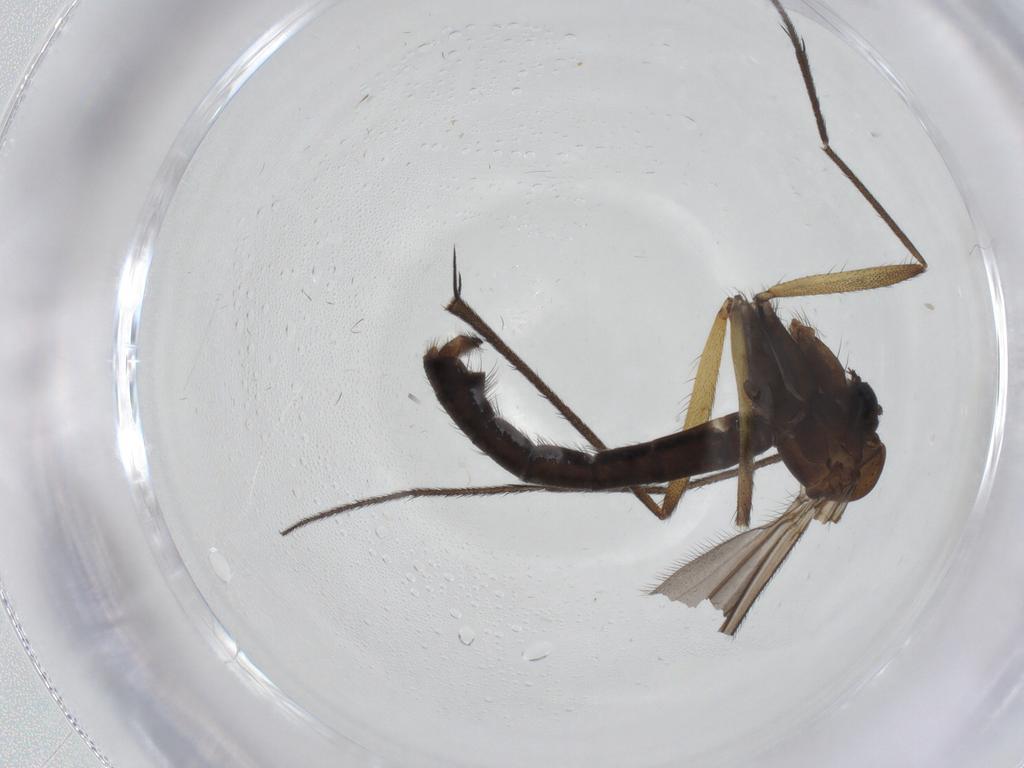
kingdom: Animalia
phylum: Arthropoda
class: Insecta
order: Diptera
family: Ditomyiidae
